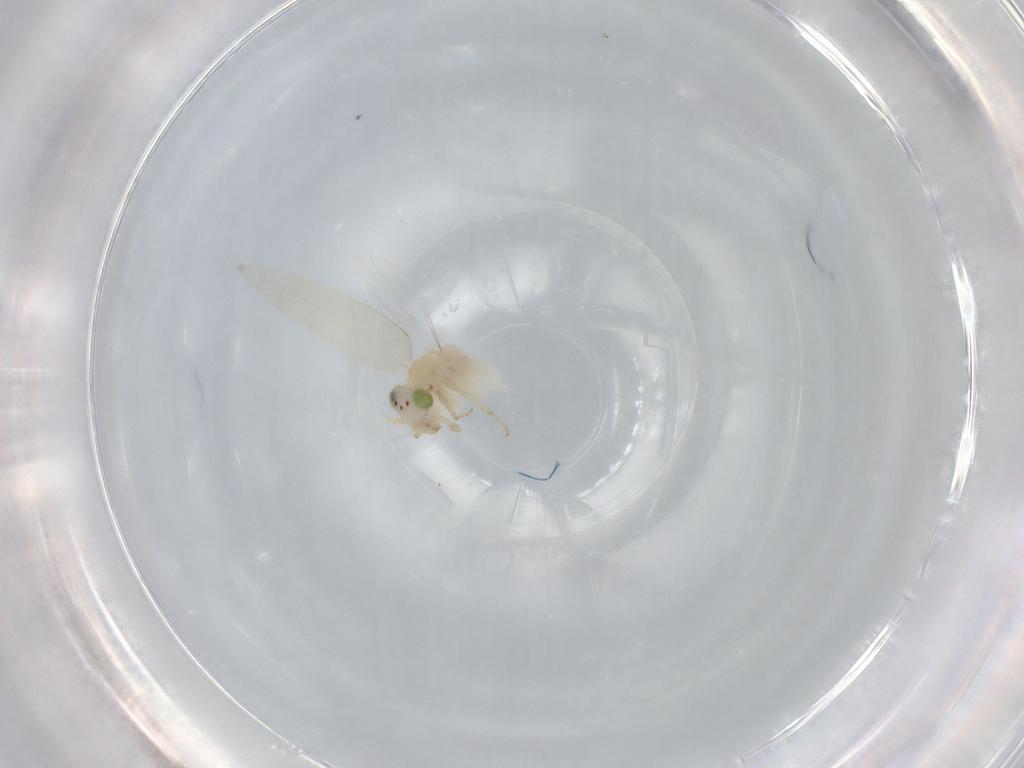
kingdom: Animalia
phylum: Arthropoda
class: Insecta
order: Psocodea
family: Lepidopsocidae
